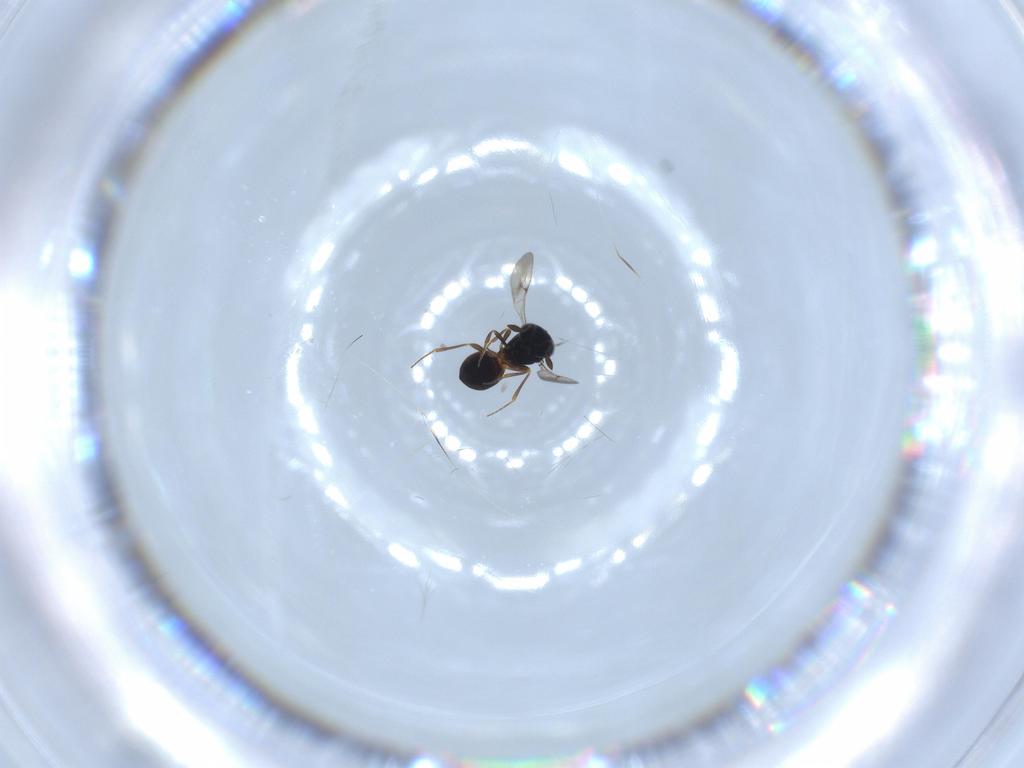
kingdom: Animalia
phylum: Arthropoda
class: Insecta
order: Hymenoptera
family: Scelionidae
